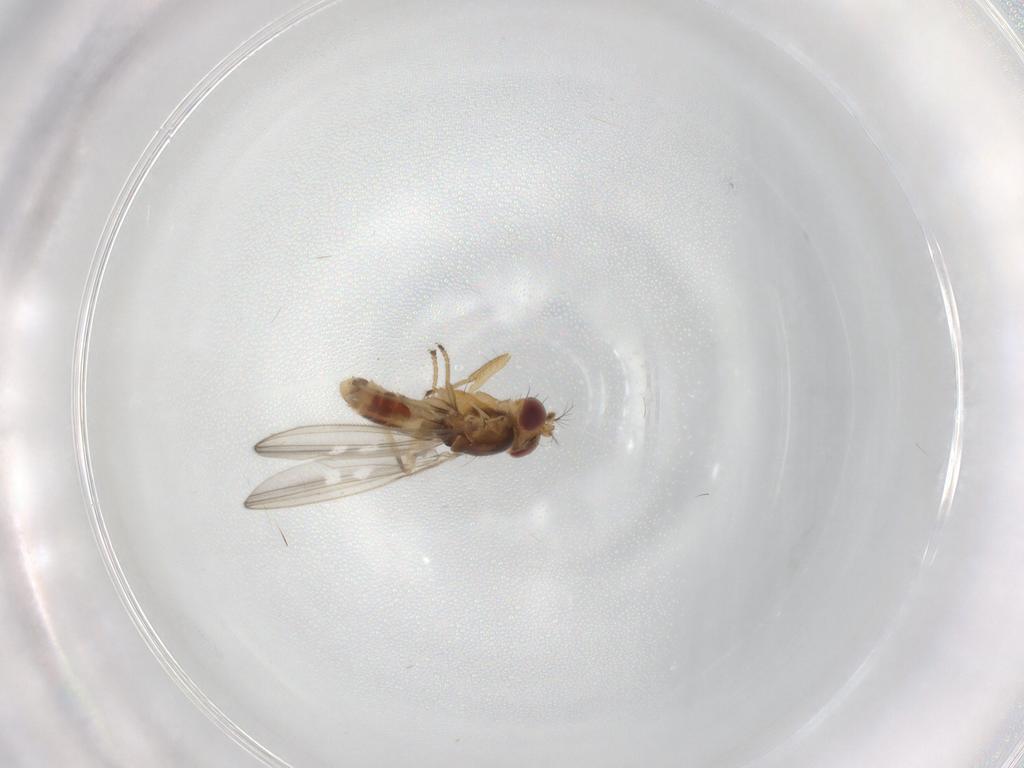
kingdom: Animalia
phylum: Arthropoda
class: Insecta
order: Diptera
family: Periscelididae
